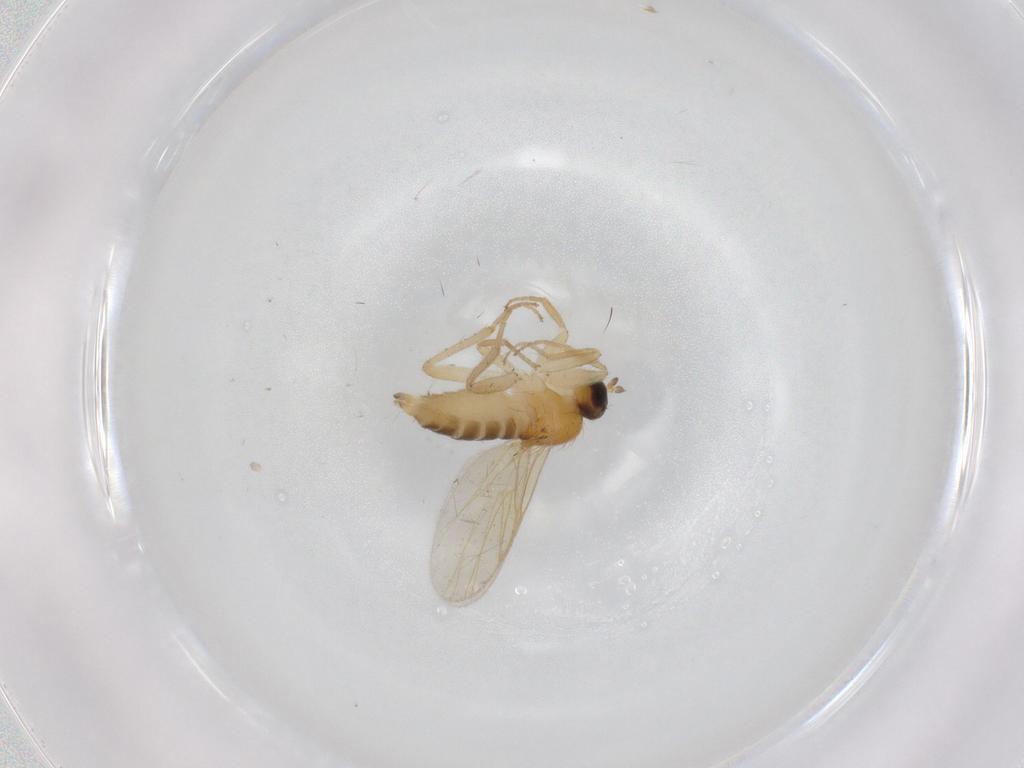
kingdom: Animalia
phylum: Arthropoda
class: Insecta
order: Diptera
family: Hybotidae
